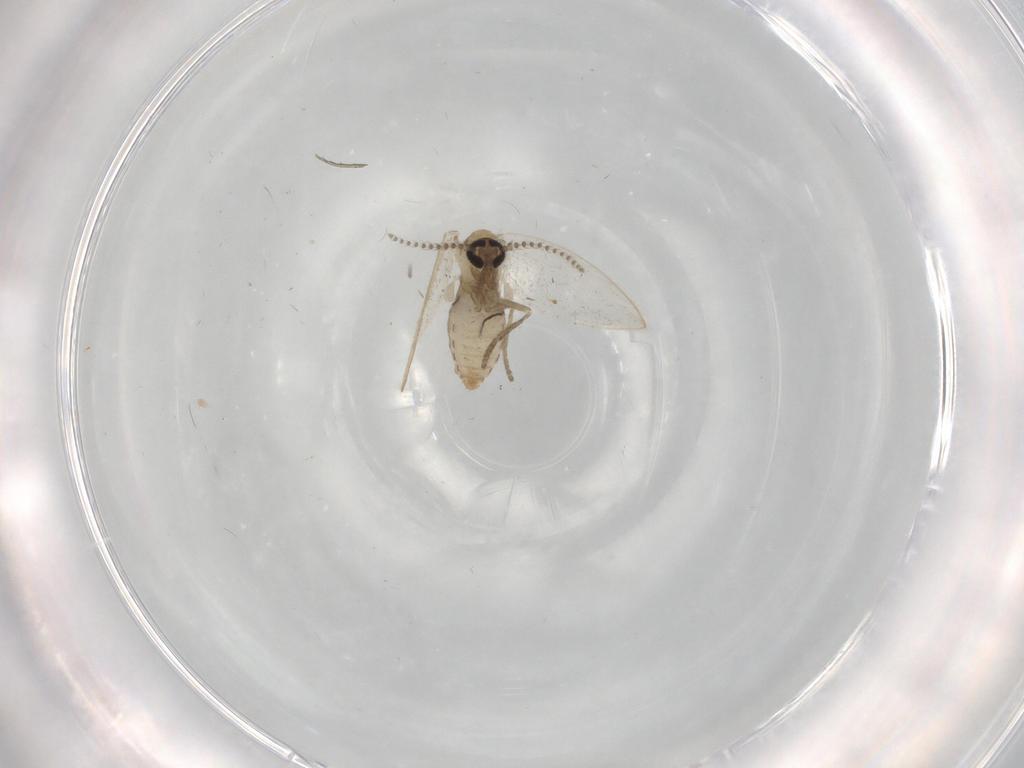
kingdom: Animalia
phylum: Arthropoda
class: Insecta
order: Diptera
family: Psychodidae
